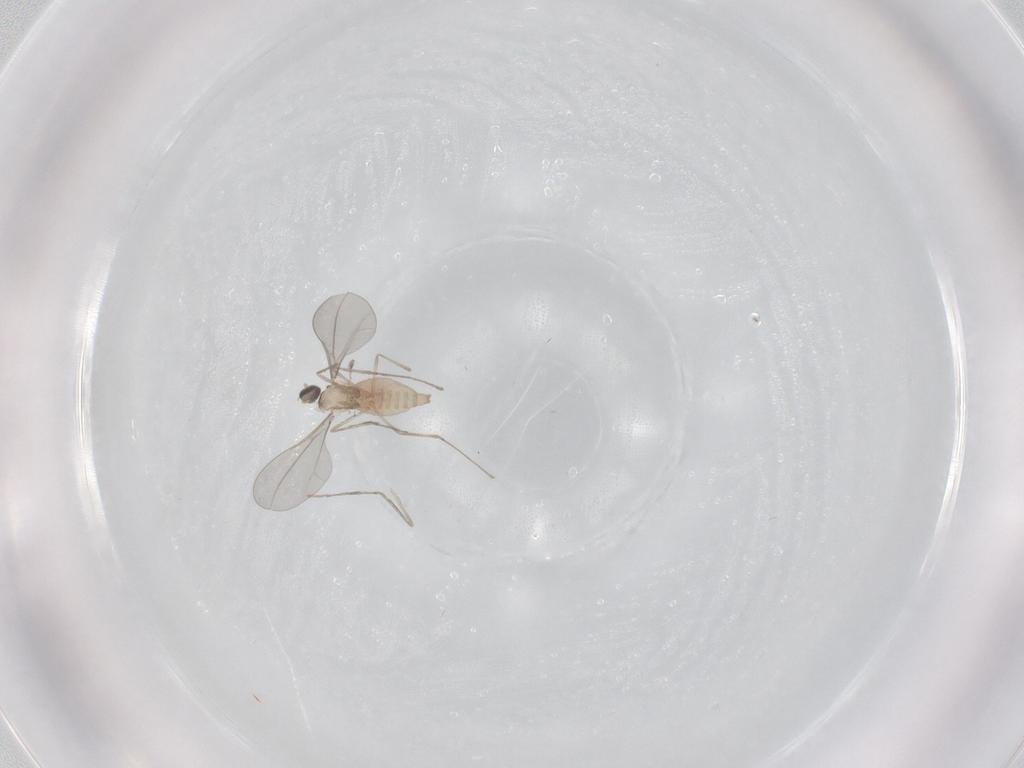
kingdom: Animalia
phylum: Arthropoda
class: Insecta
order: Diptera
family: Cecidomyiidae
